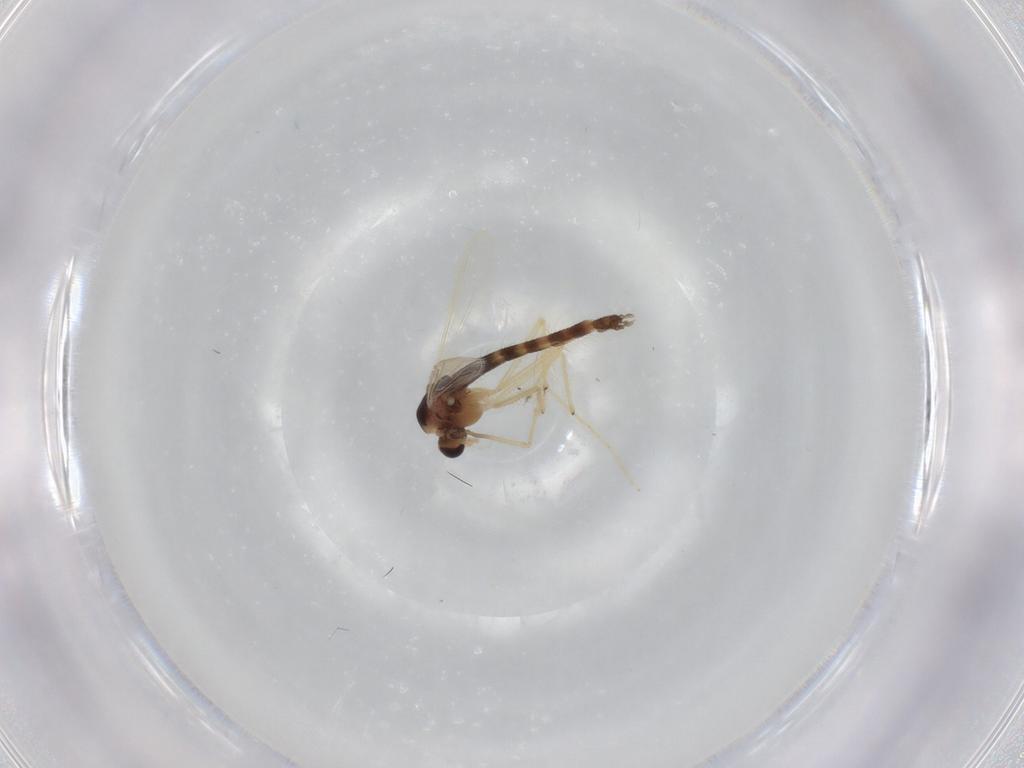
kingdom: Animalia
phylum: Arthropoda
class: Insecta
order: Diptera
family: Chironomidae
